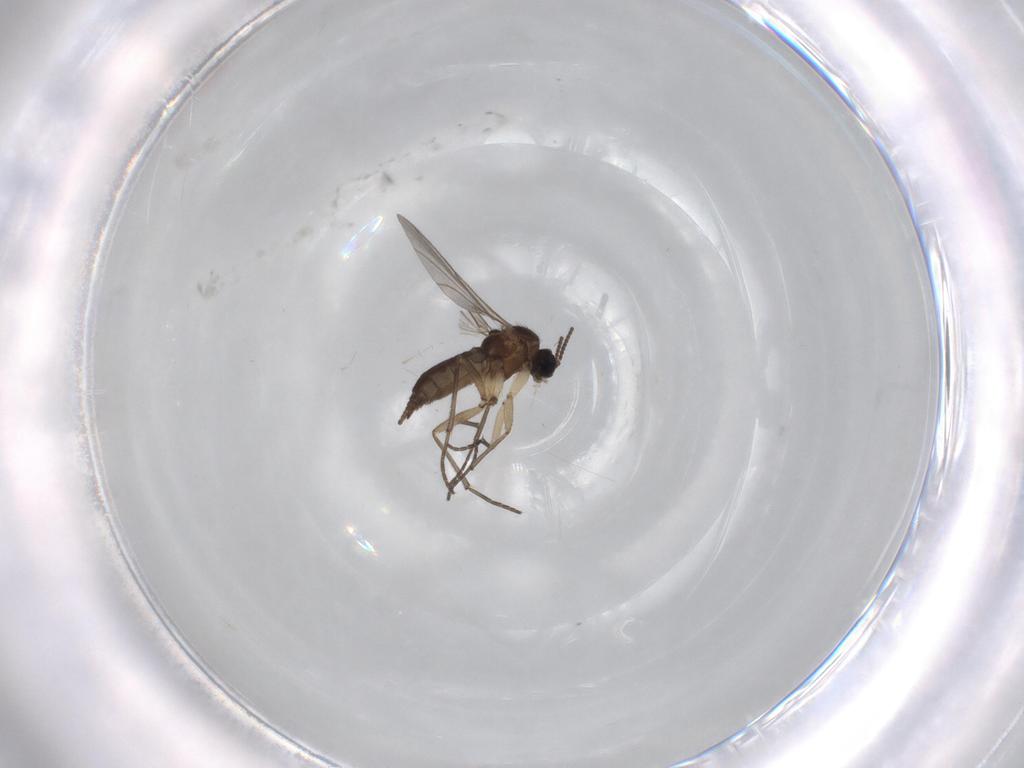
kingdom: Animalia
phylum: Arthropoda
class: Insecta
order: Diptera
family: Sciaridae
